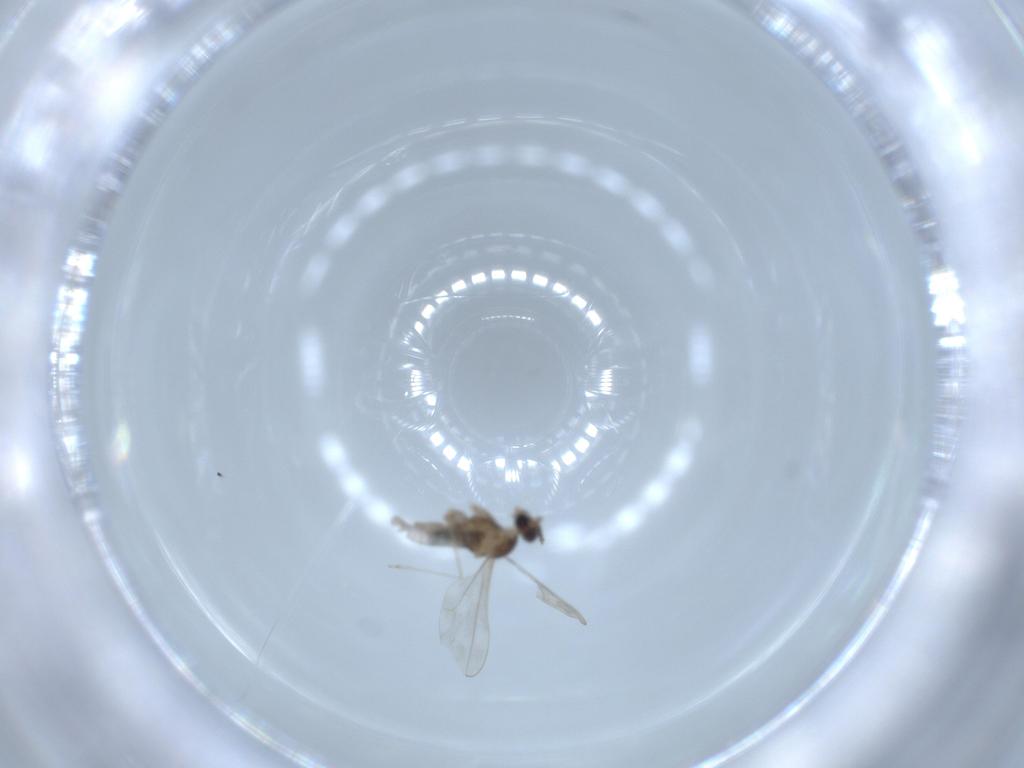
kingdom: Animalia
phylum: Arthropoda
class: Insecta
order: Diptera
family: Cecidomyiidae
